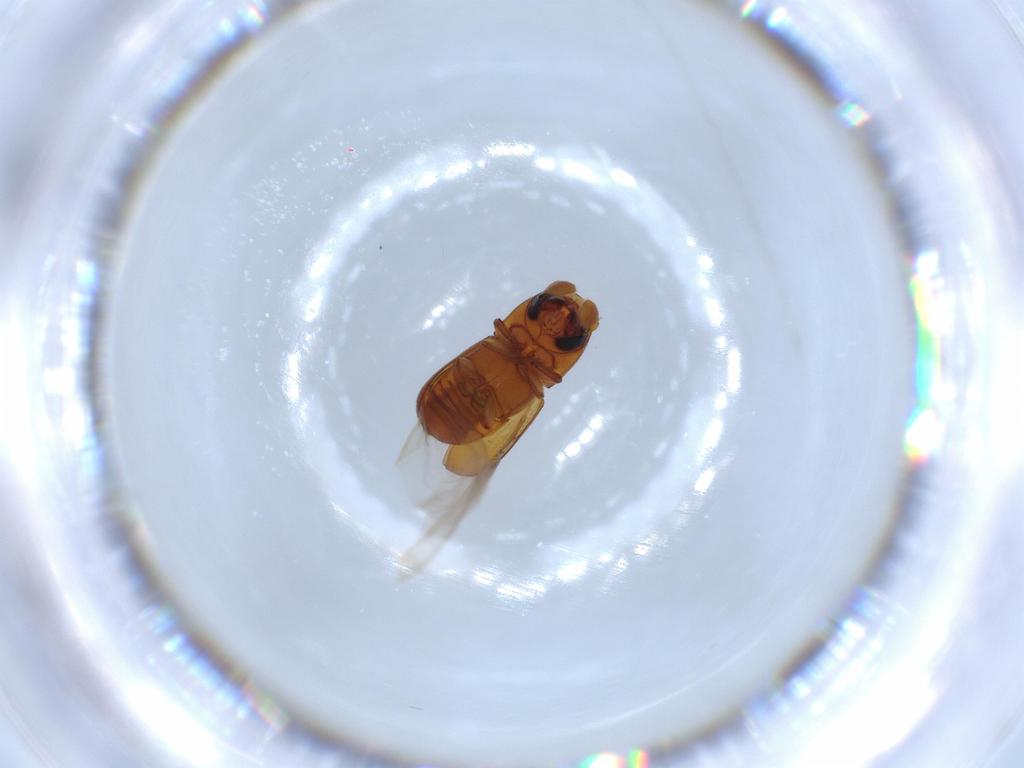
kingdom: Animalia
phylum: Arthropoda
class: Insecta
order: Coleoptera
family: Curculionidae
